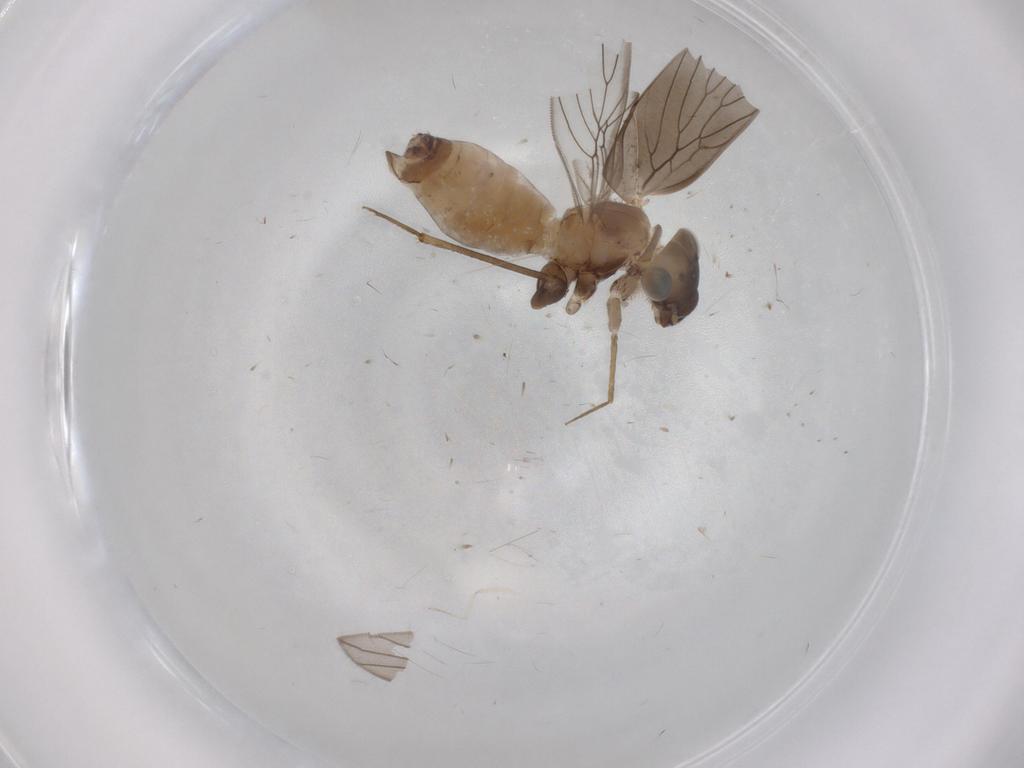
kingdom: Animalia
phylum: Arthropoda
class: Insecta
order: Psocodea
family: Lepidopsocidae
